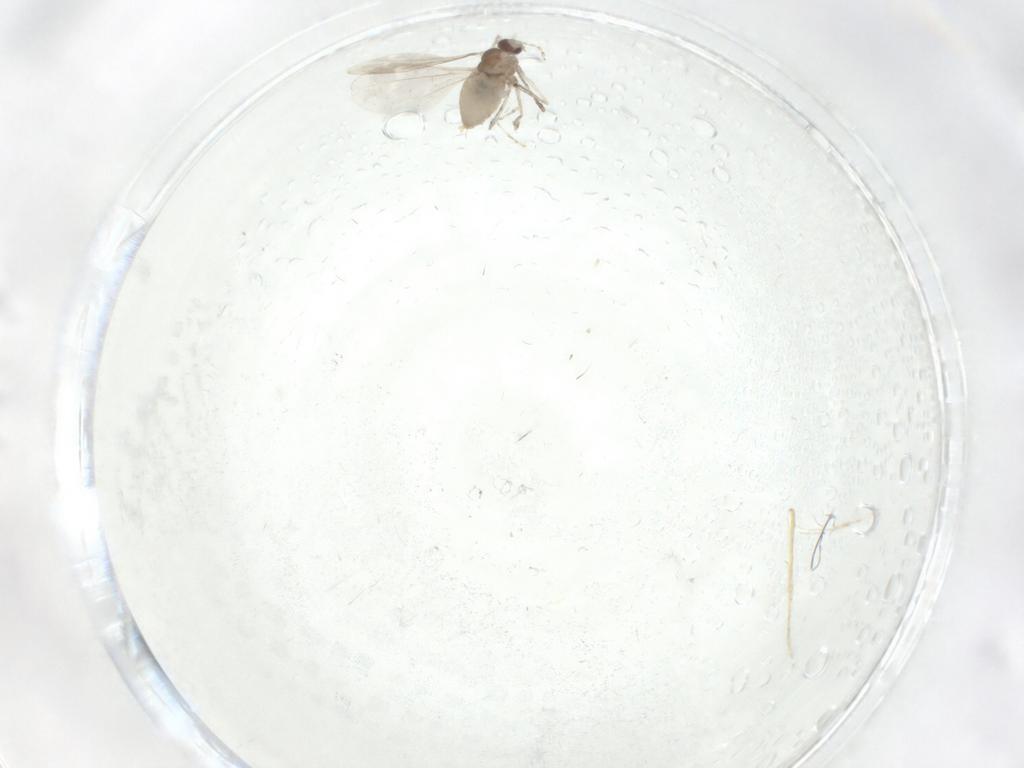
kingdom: Animalia
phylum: Arthropoda
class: Insecta
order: Diptera
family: Cecidomyiidae
